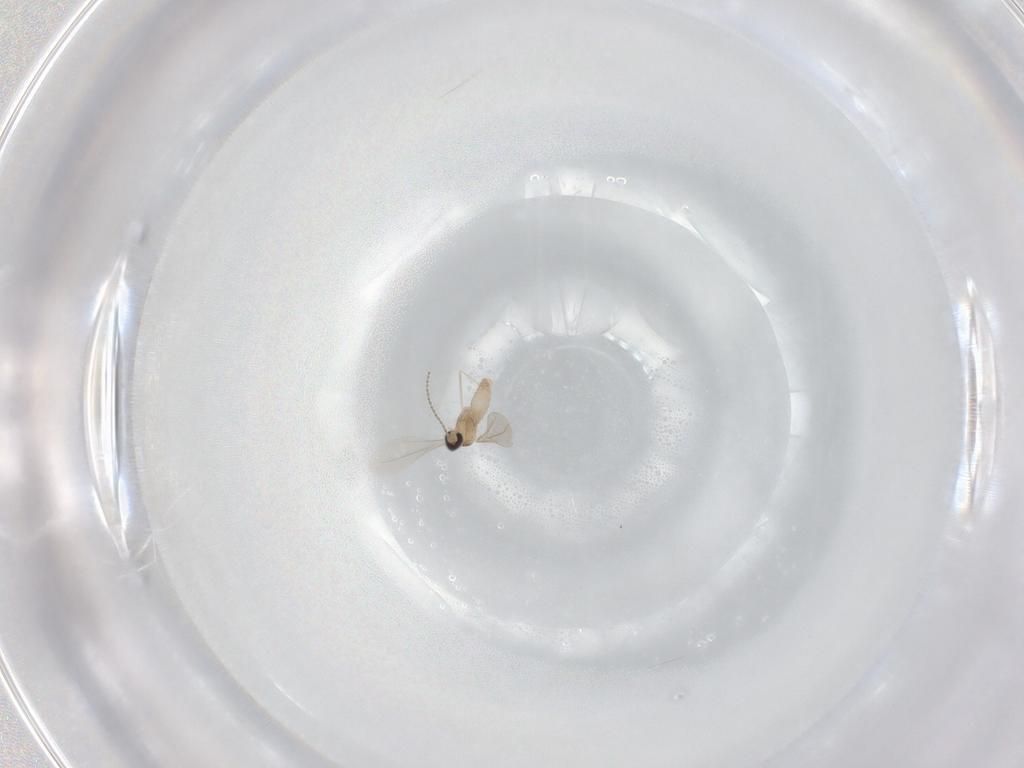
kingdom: Animalia
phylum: Arthropoda
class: Insecta
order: Diptera
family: Cecidomyiidae
